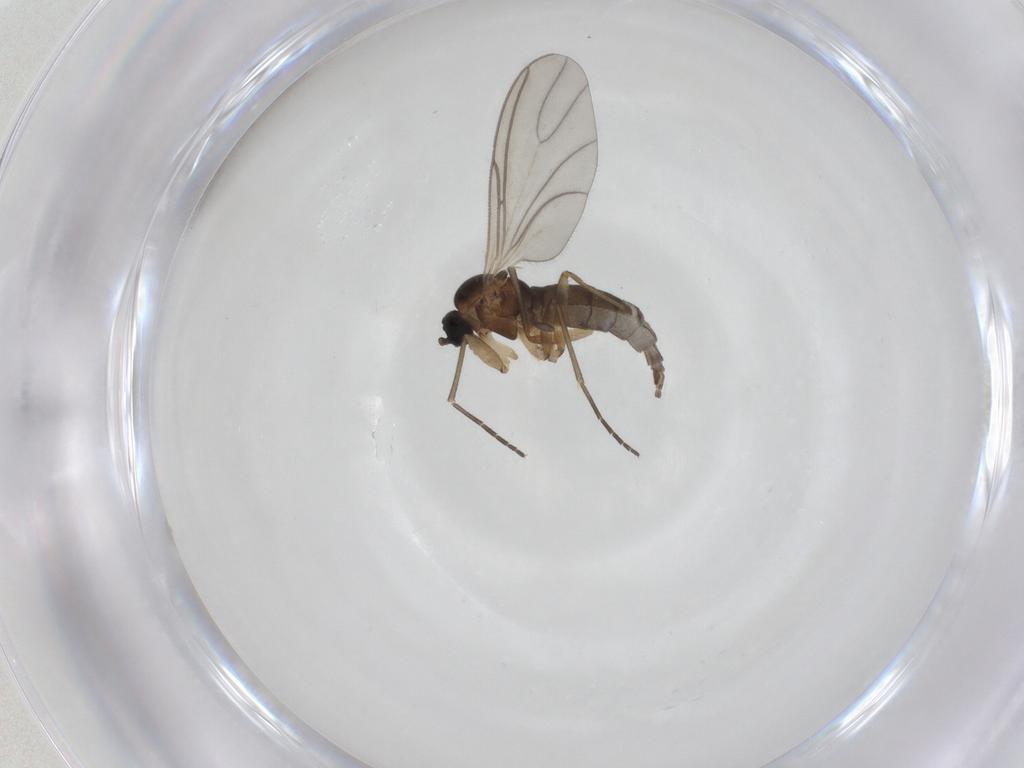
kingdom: Animalia
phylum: Arthropoda
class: Insecta
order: Diptera
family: Sciaridae
